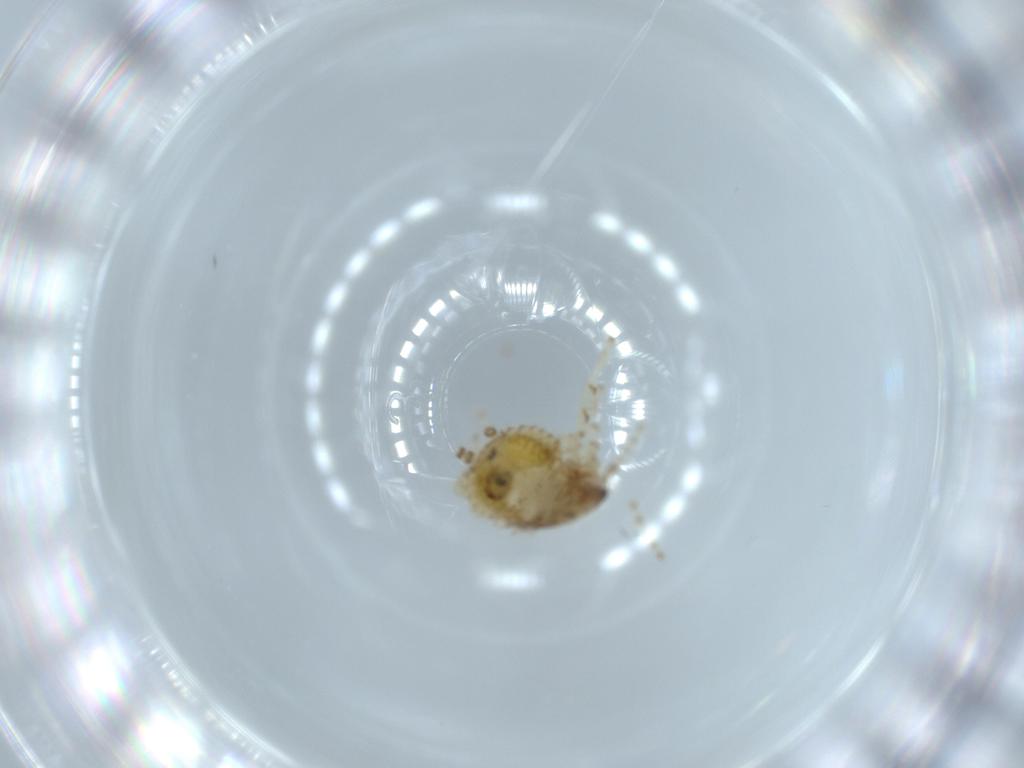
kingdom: Animalia
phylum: Arthropoda
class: Insecta
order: Blattodea
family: Ectobiidae
